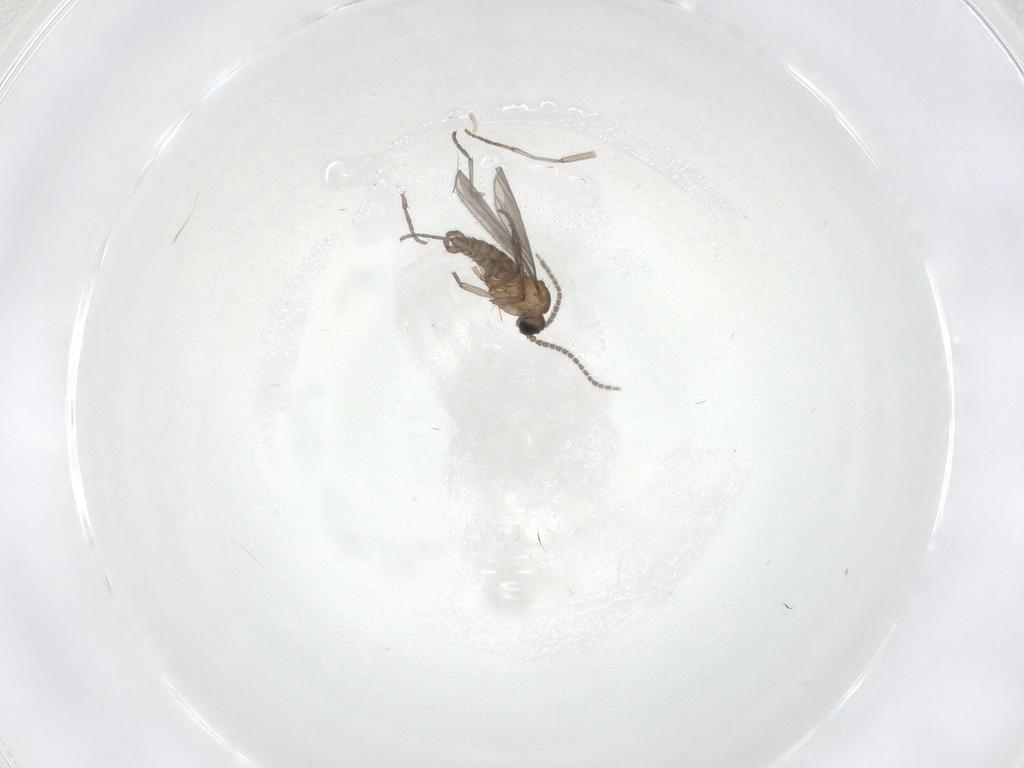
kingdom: Animalia
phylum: Arthropoda
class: Insecta
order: Diptera
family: Sciaridae
